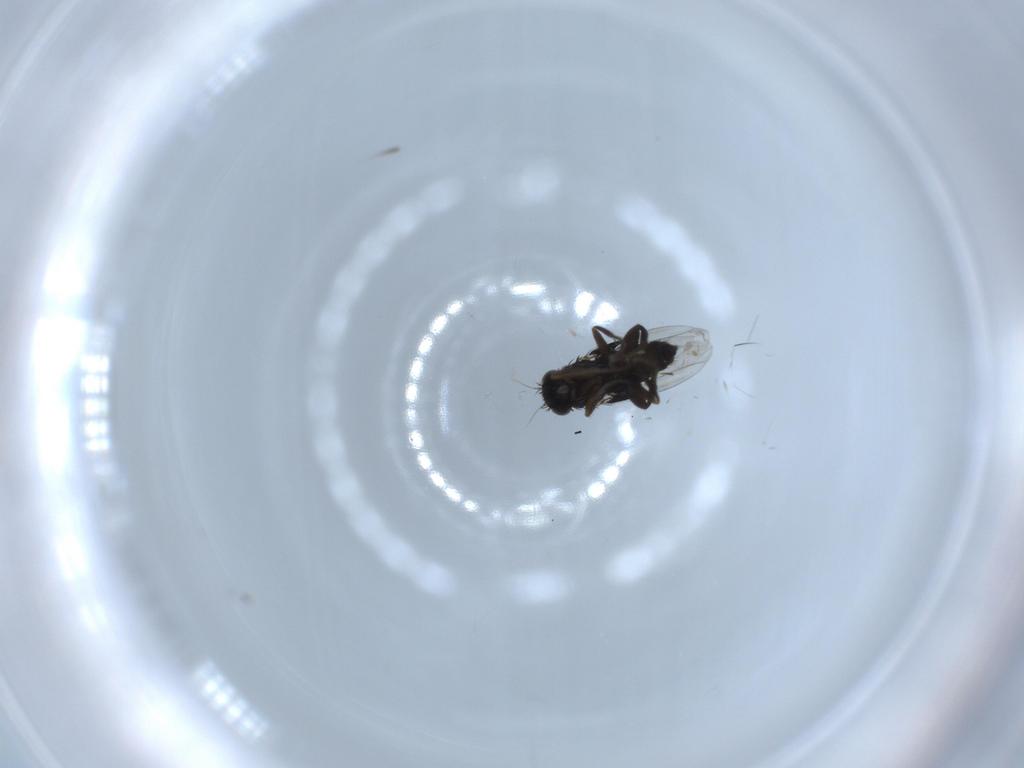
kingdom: Animalia
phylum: Arthropoda
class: Insecta
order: Diptera
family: Phoridae
